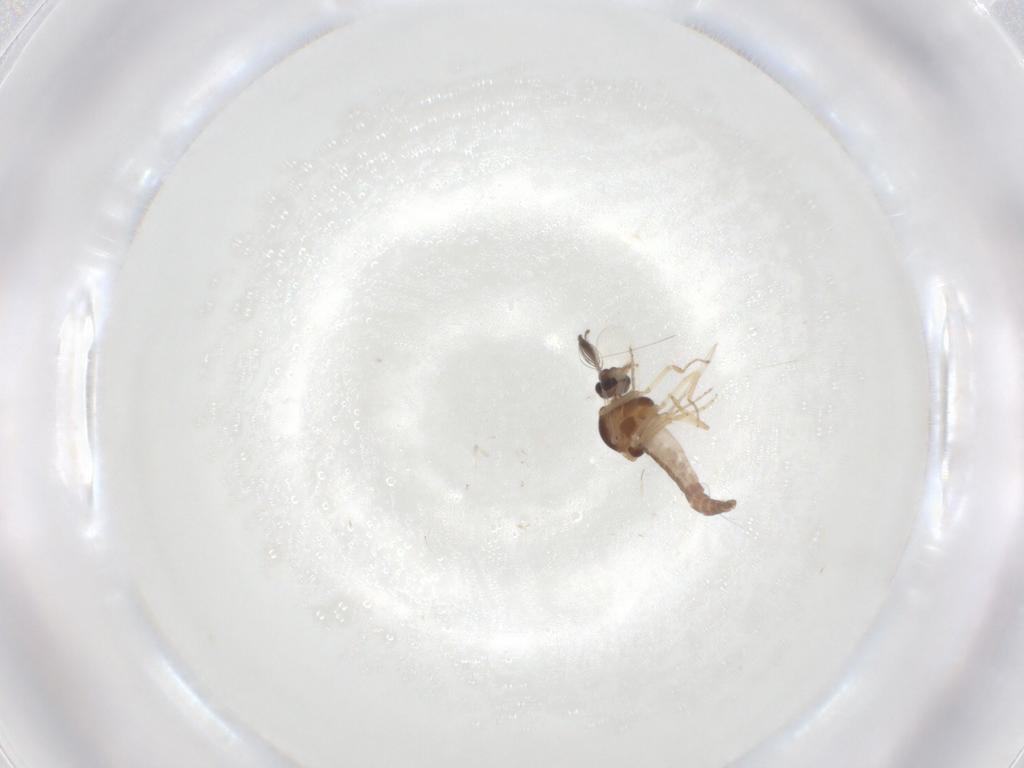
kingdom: Animalia
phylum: Arthropoda
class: Insecta
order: Diptera
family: Ceratopogonidae
